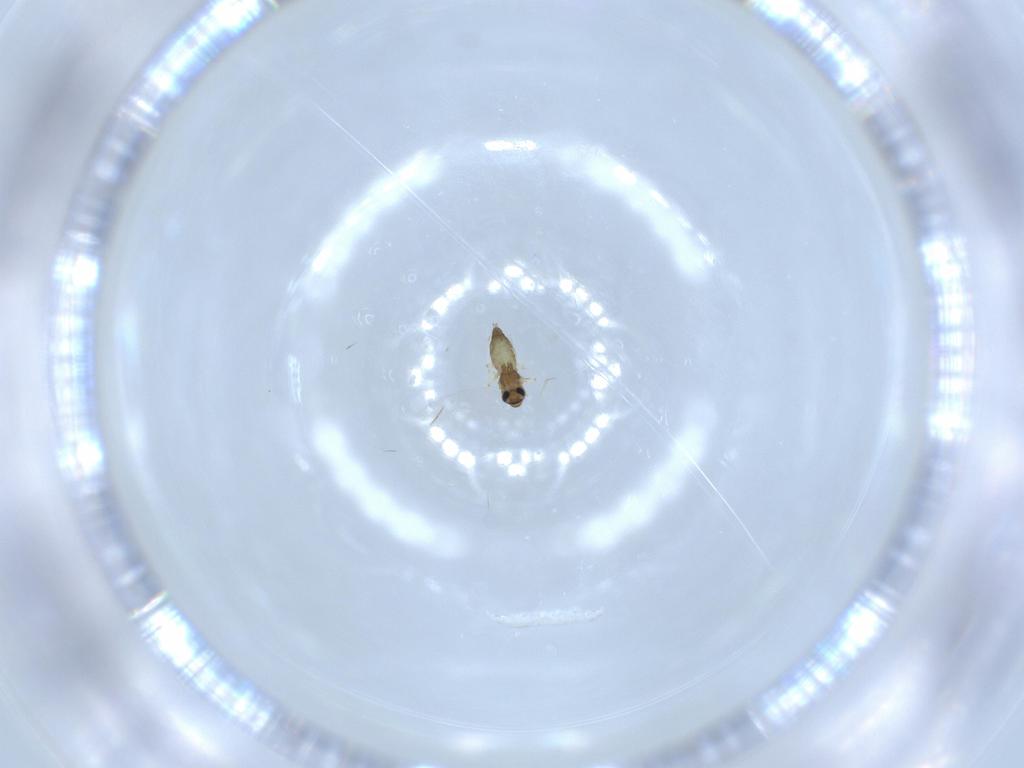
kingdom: Animalia
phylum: Arthropoda
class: Insecta
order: Diptera
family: Chironomidae
